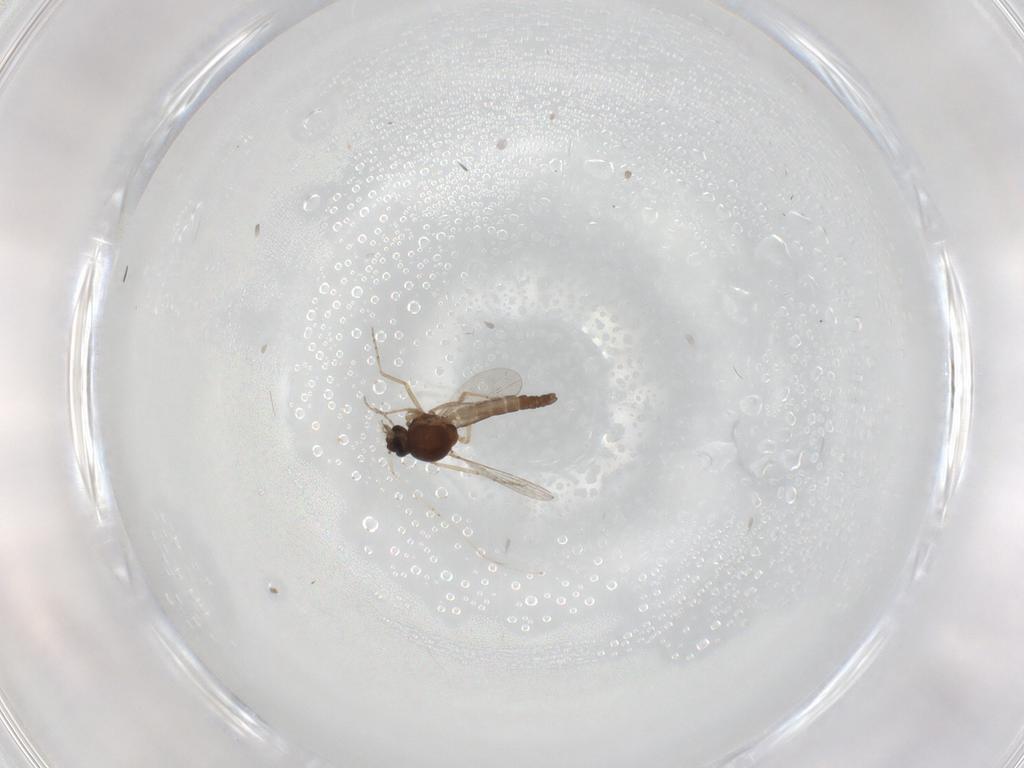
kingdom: Animalia
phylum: Arthropoda
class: Insecta
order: Diptera
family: Ceratopogonidae
